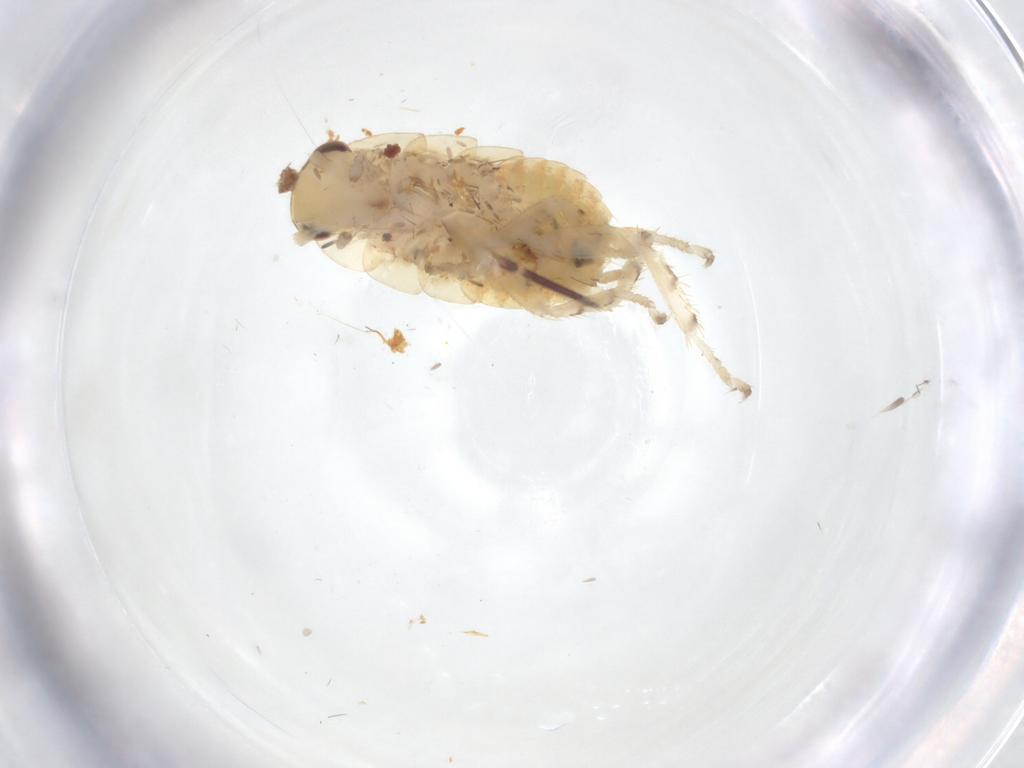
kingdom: Animalia
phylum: Arthropoda
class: Insecta
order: Blattodea
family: Ectobiidae
